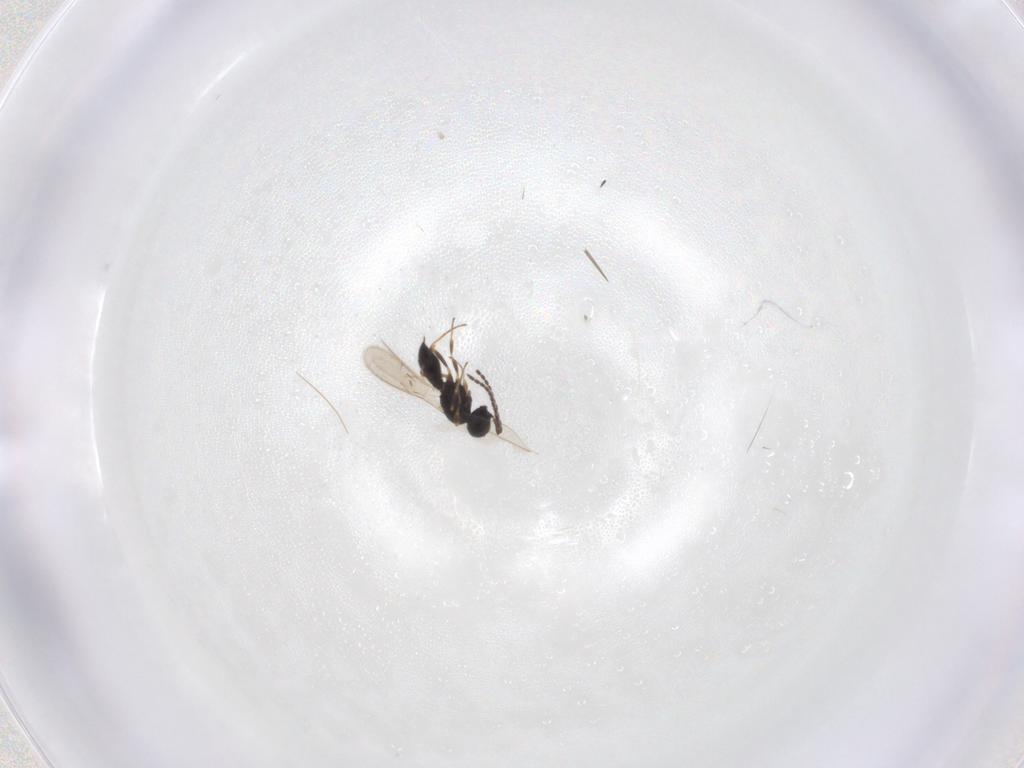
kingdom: Animalia
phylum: Arthropoda
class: Insecta
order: Hymenoptera
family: Scelionidae
